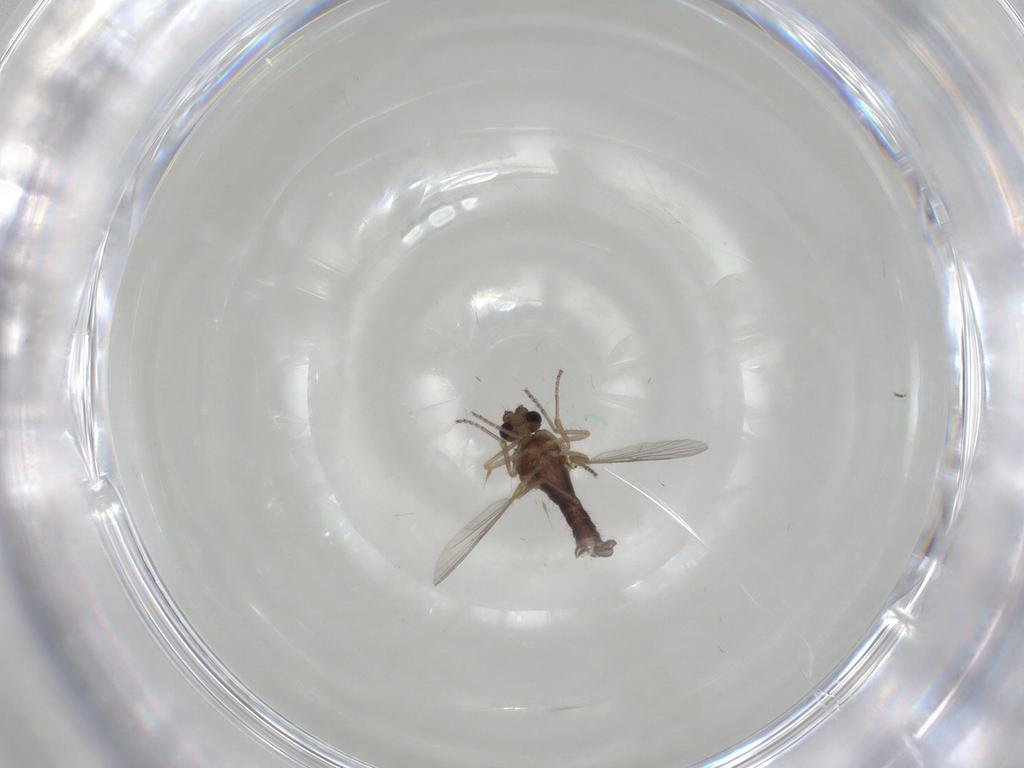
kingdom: Animalia
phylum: Arthropoda
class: Insecta
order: Diptera
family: Ceratopogonidae
